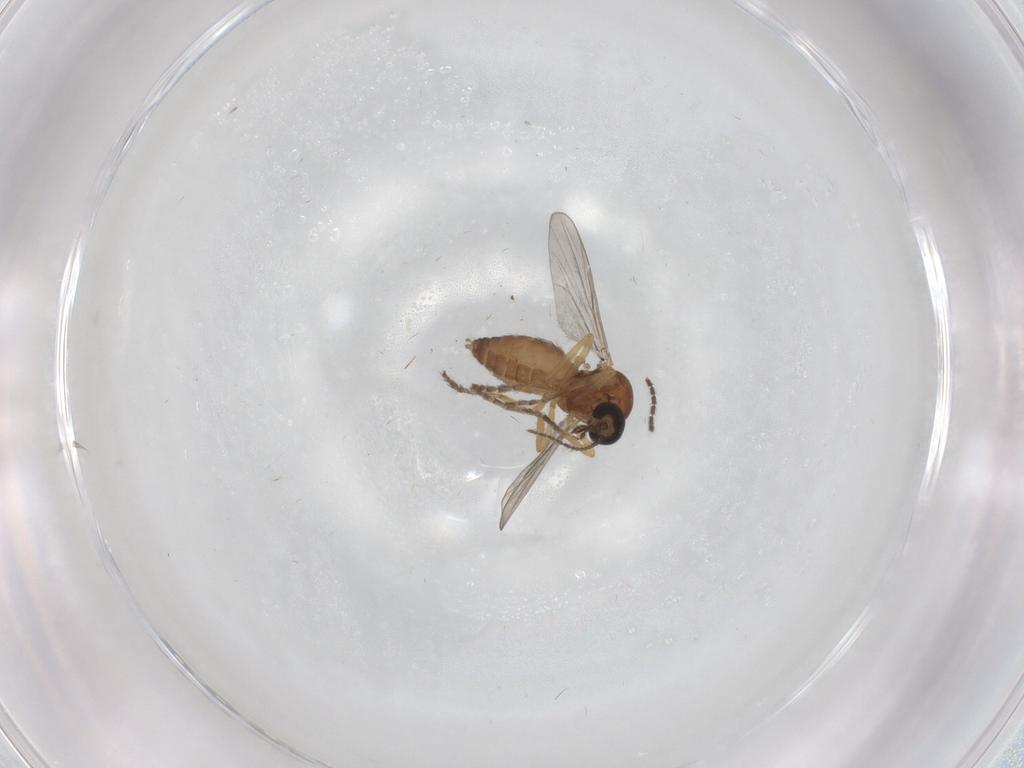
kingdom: Animalia
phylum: Arthropoda
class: Insecta
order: Diptera
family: Ceratopogonidae
